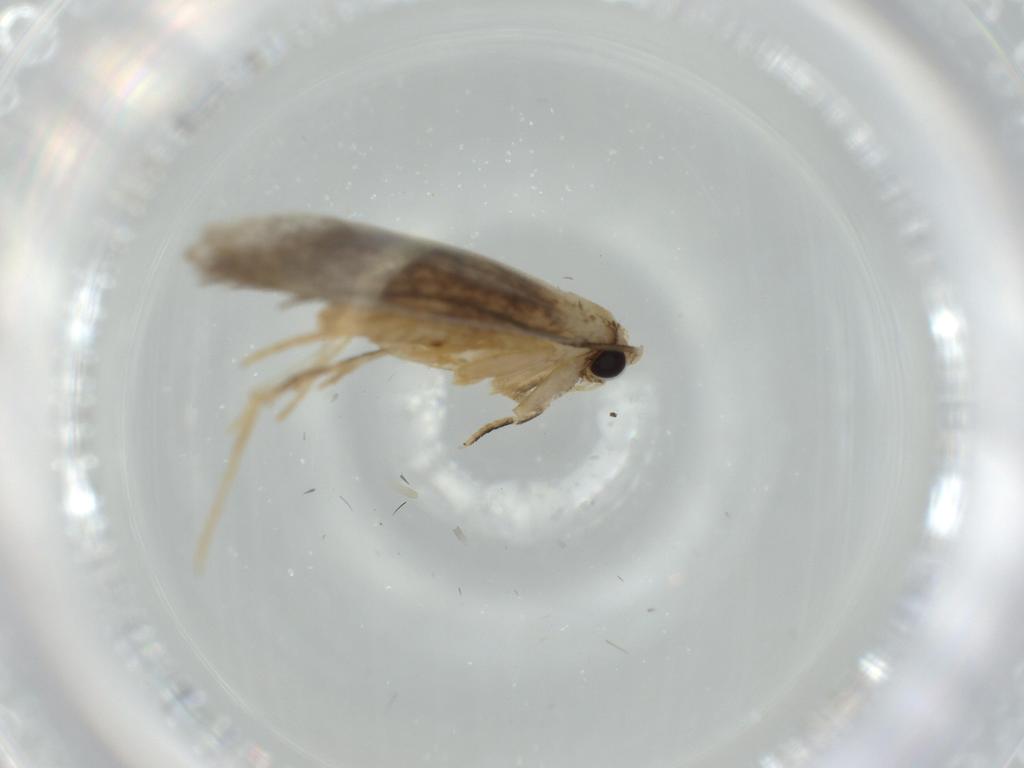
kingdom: Animalia
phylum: Arthropoda
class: Insecta
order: Lepidoptera
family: Tineidae
